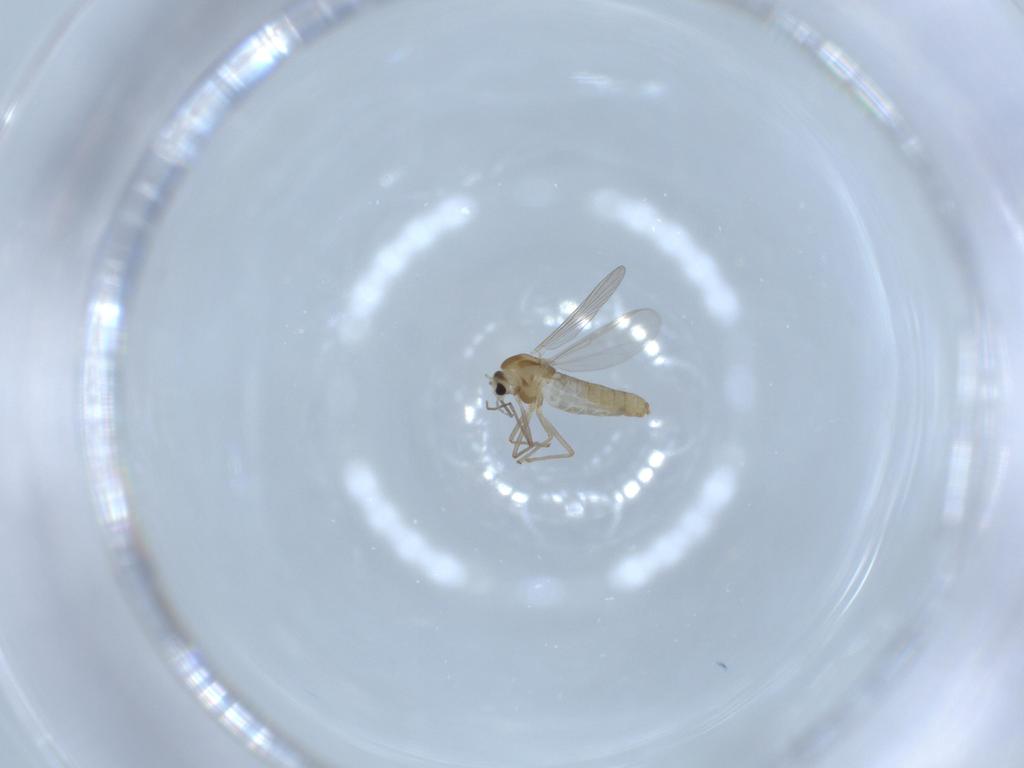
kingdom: Animalia
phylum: Arthropoda
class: Insecta
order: Diptera
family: Chironomidae
